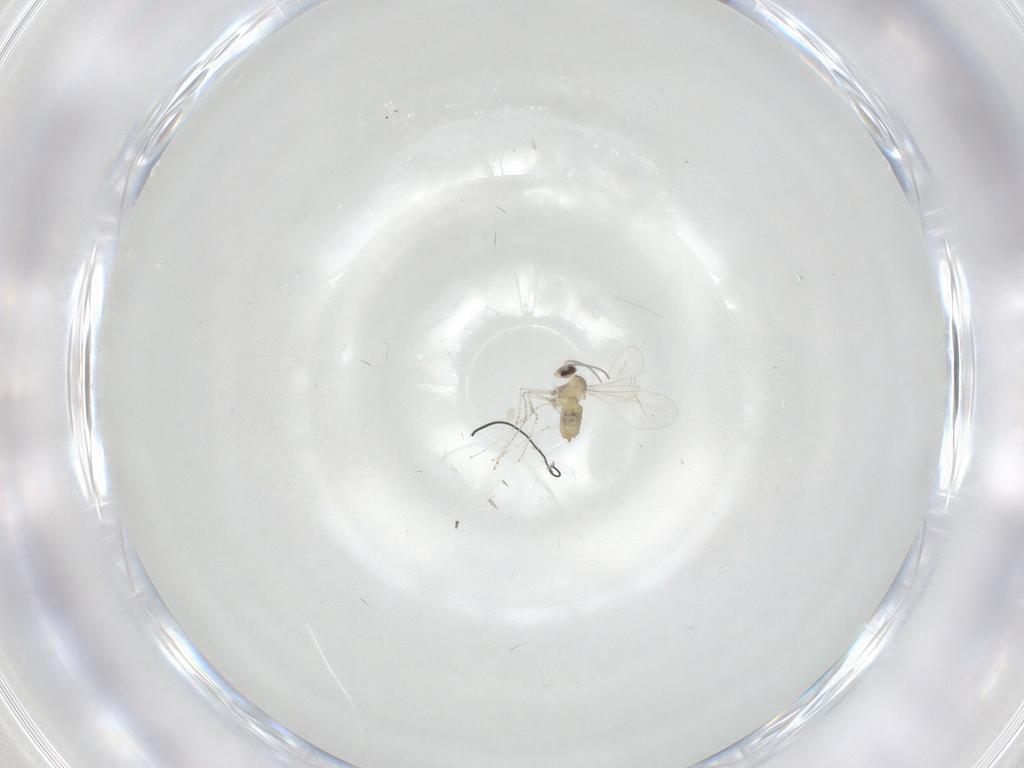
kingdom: Animalia
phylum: Arthropoda
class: Insecta
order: Diptera
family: Cecidomyiidae
